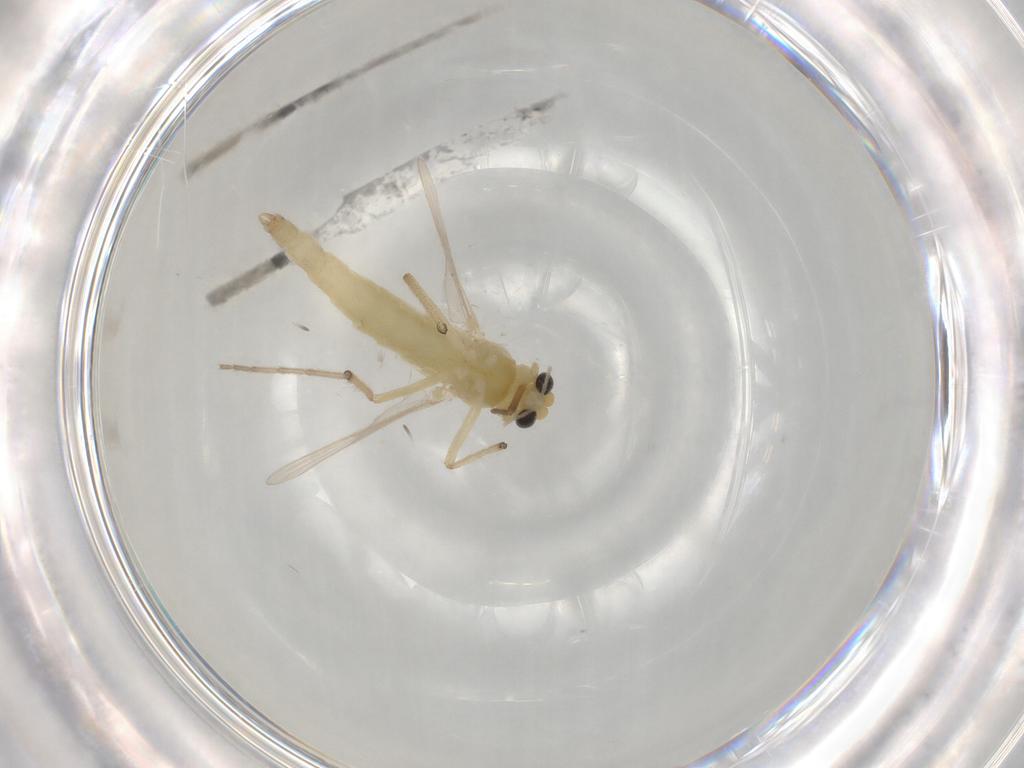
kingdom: Animalia
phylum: Arthropoda
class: Insecta
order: Diptera
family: Chironomidae
